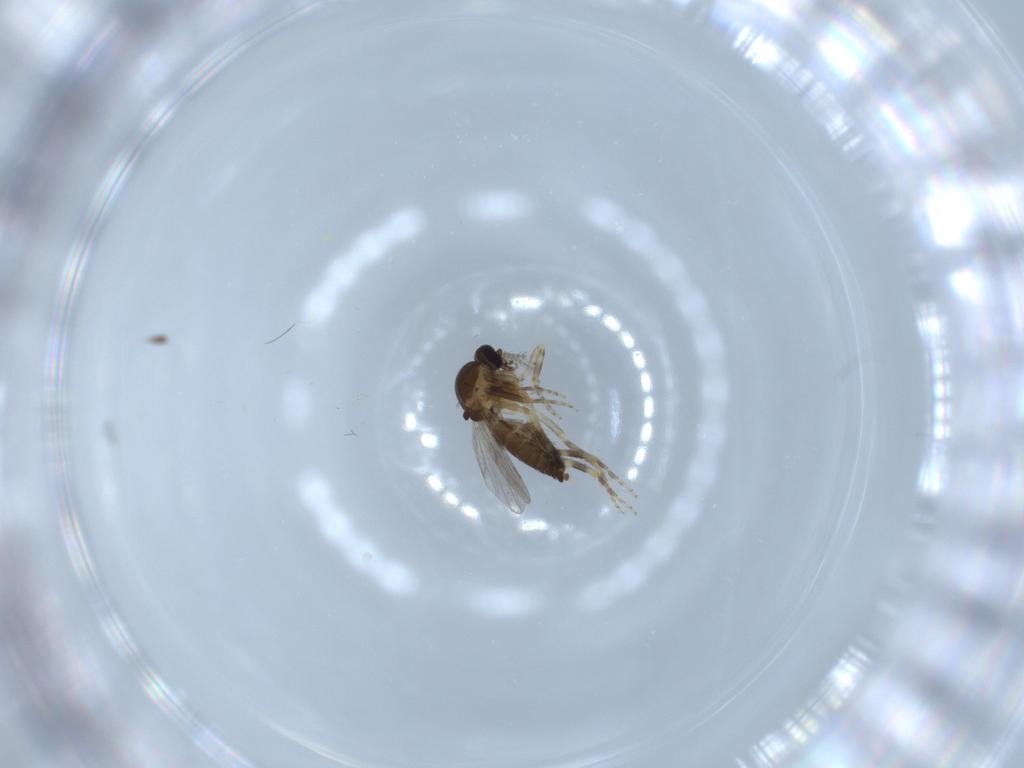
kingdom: Animalia
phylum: Arthropoda
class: Insecta
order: Diptera
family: Ceratopogonidae
